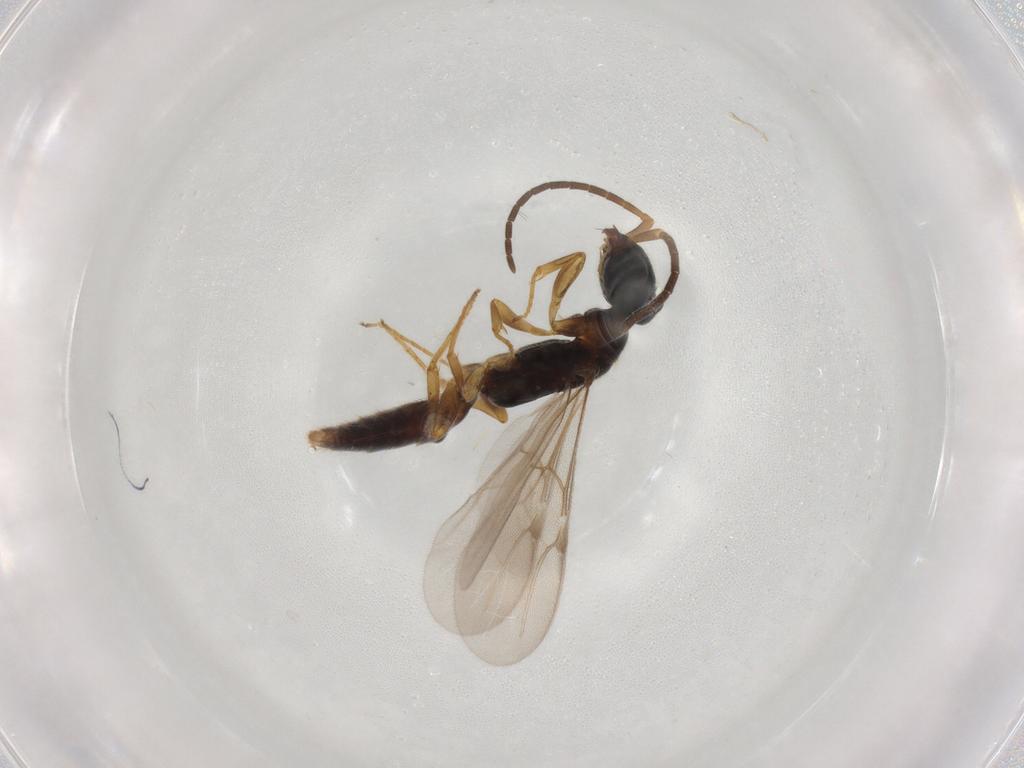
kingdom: Animalia
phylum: Arthropoda
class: Insecta
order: Hymenoptera
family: Bethylidae
